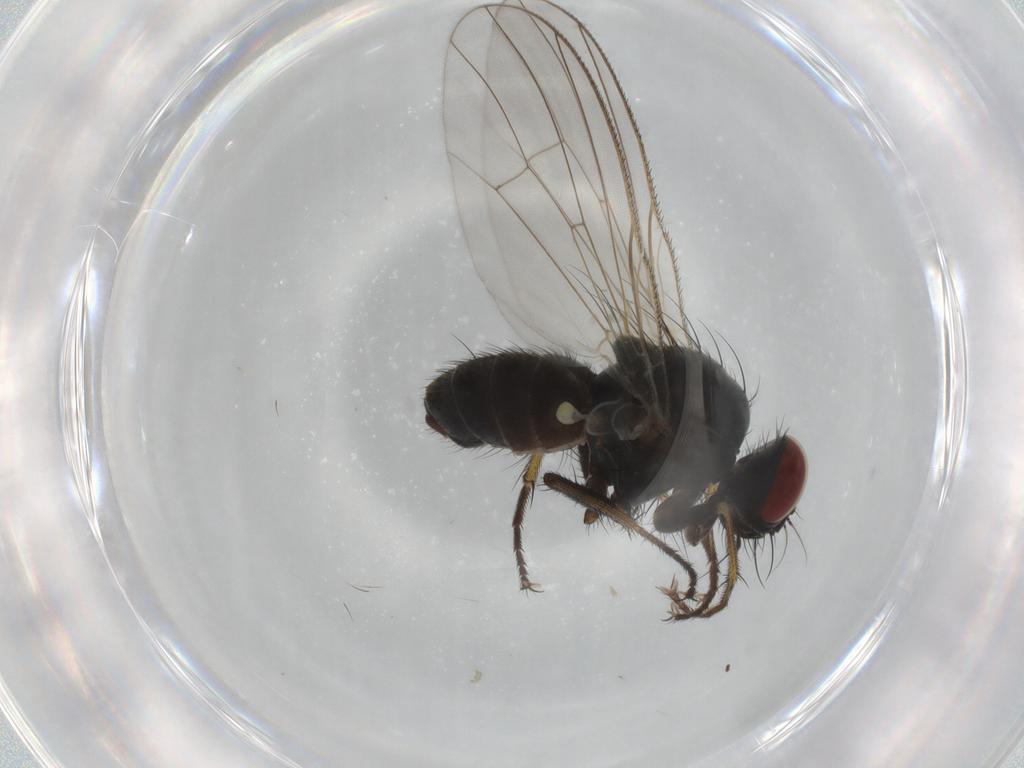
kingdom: Animalia
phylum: Arthropoda
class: Insecta
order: Diptera
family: Chironomidae
